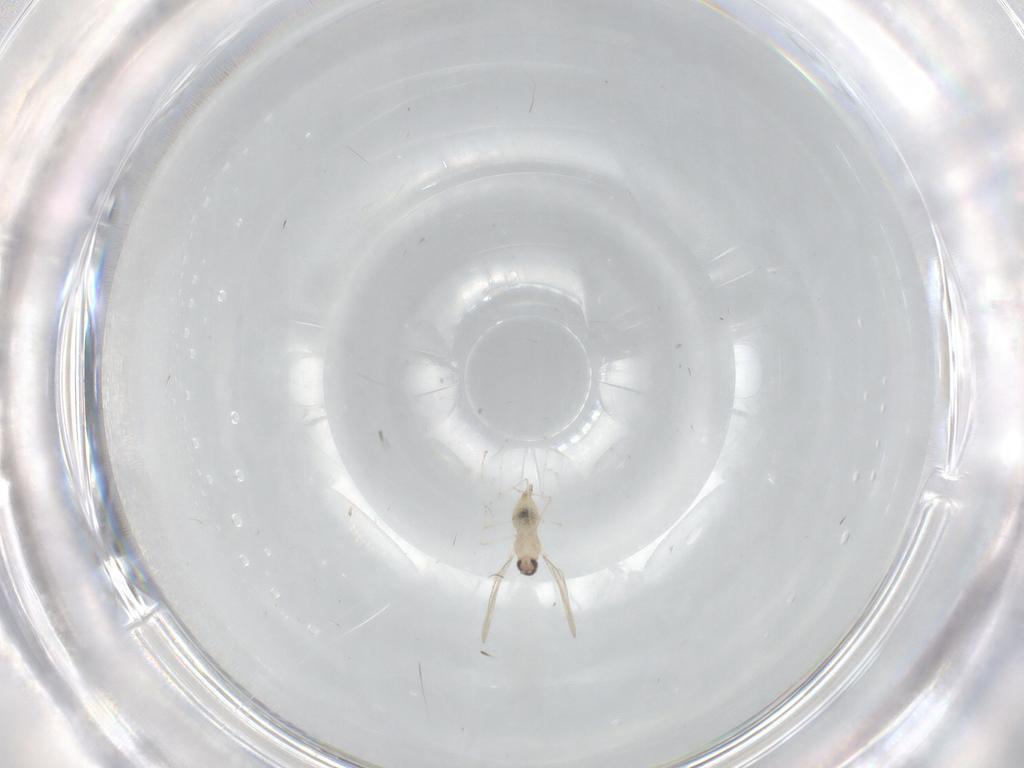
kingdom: Animalia
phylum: Arthropoda
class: Insecta
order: Diptera
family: Cecidomyiidae
